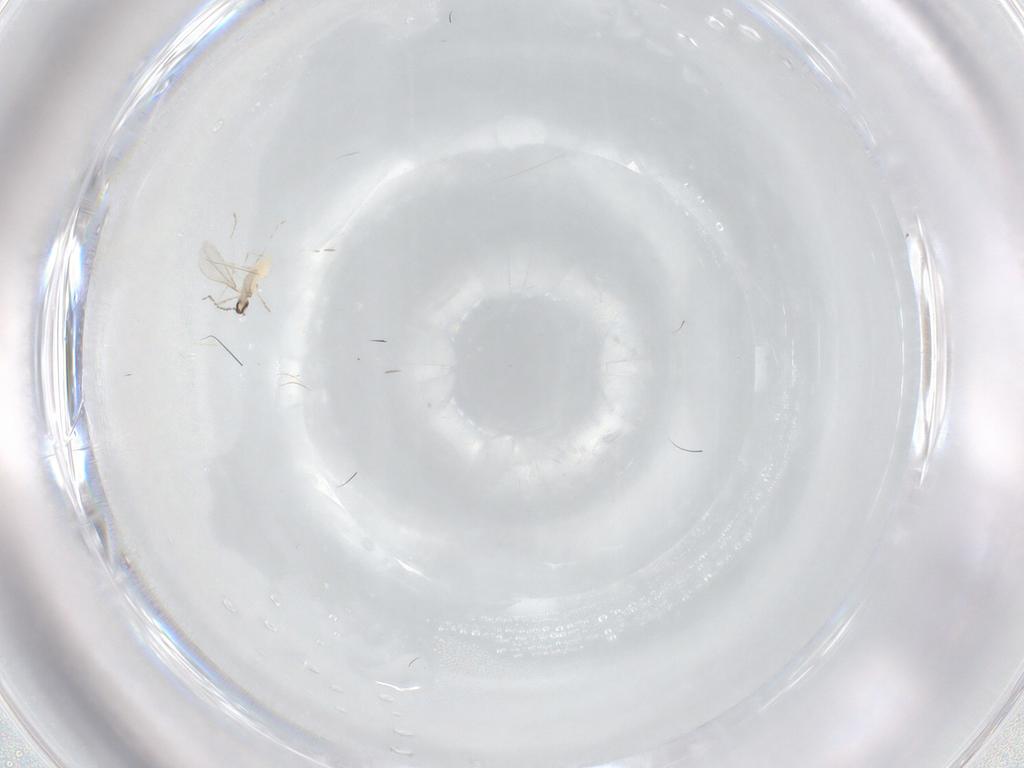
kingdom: Animalia
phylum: Arthropoda
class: Insecta
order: Diptera
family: Cecidomyiidae
